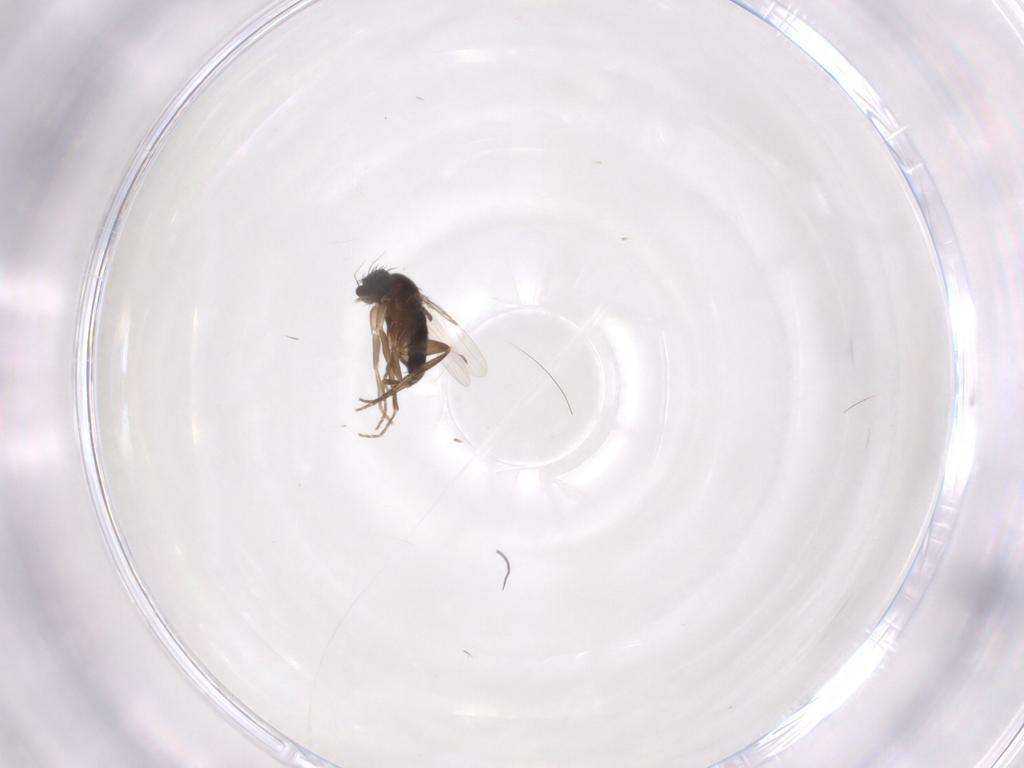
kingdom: Animalia
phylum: Arthropoda
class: Insecta
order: Diptera
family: Phoridae
